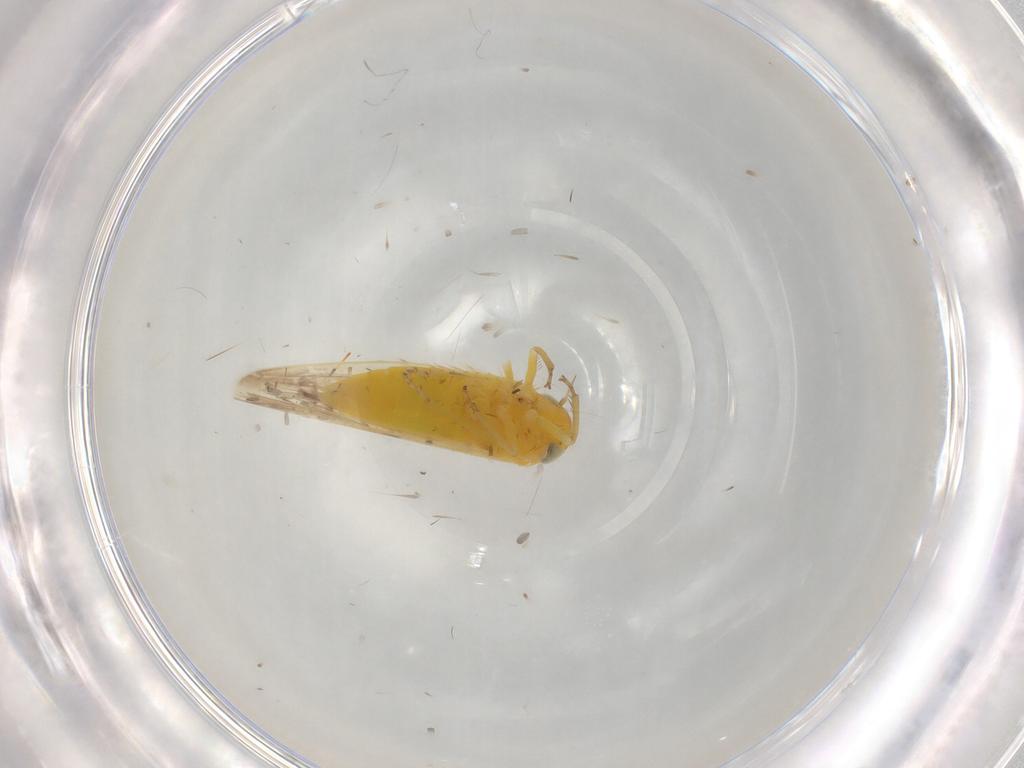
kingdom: Animalia
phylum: Arthropoda
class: Insecta
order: Hemiptera
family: Cicadellidae
